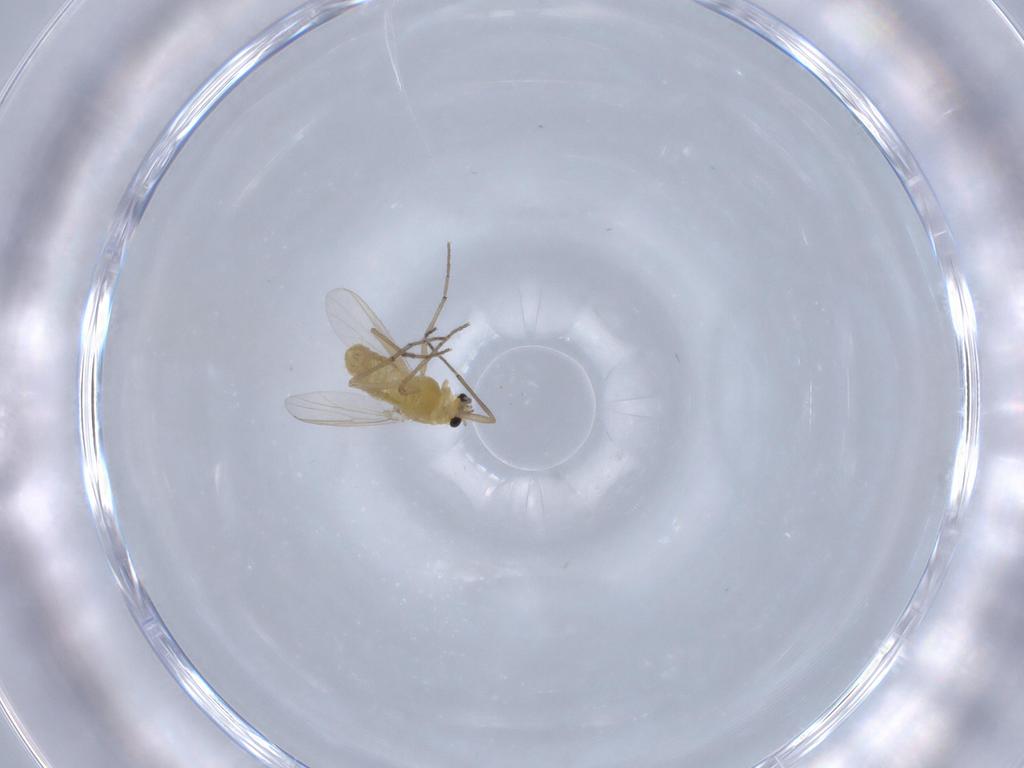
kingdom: Animalia
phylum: Arthropoda
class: Insecta
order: Diptera
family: Chironomidae
